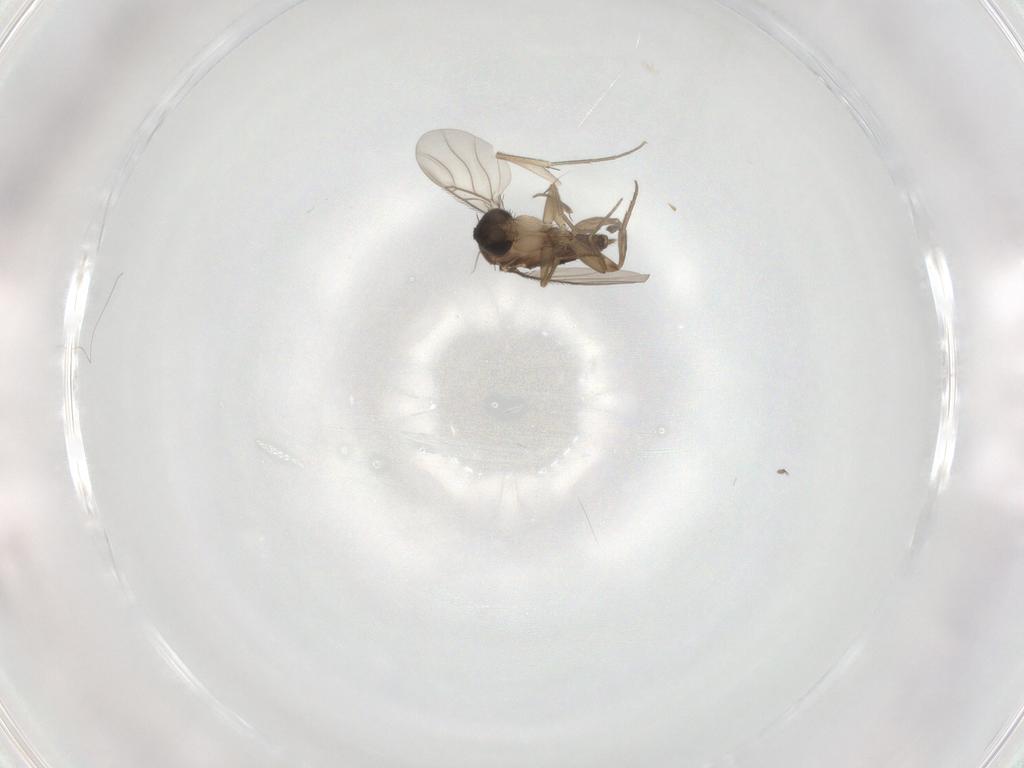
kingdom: Animalia
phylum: Arthropoda
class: Insecta
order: Diptera
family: Phoridae
